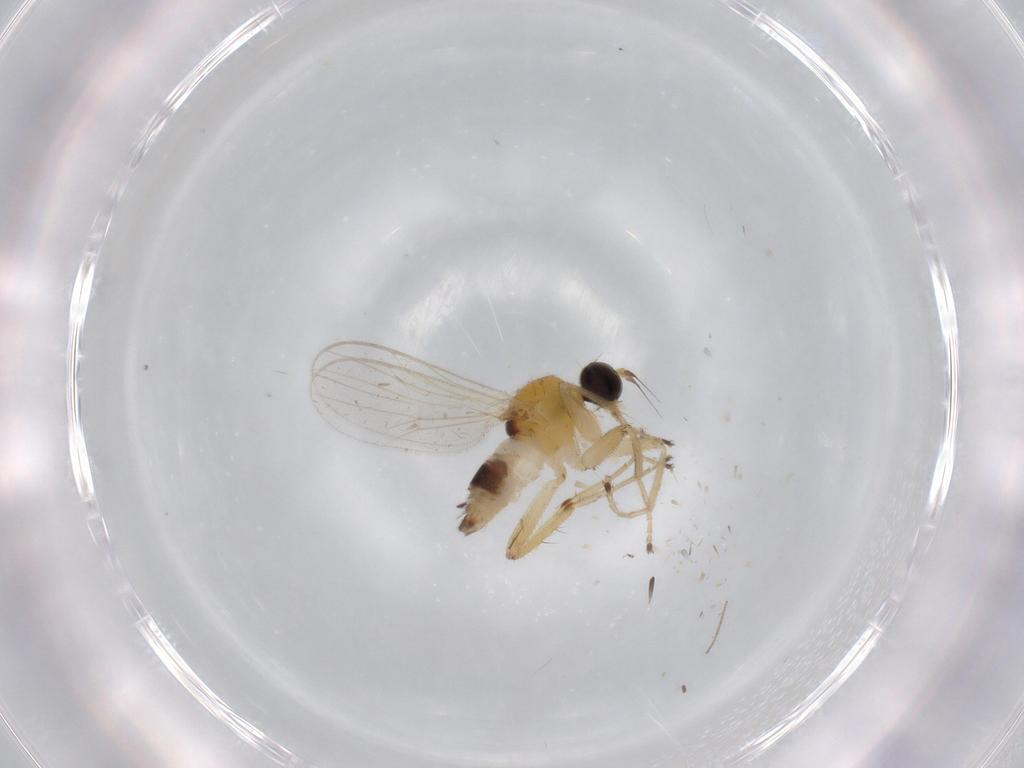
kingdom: Animalia
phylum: Arthropoda
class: Insecta
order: Diptera
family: Hybotidae
